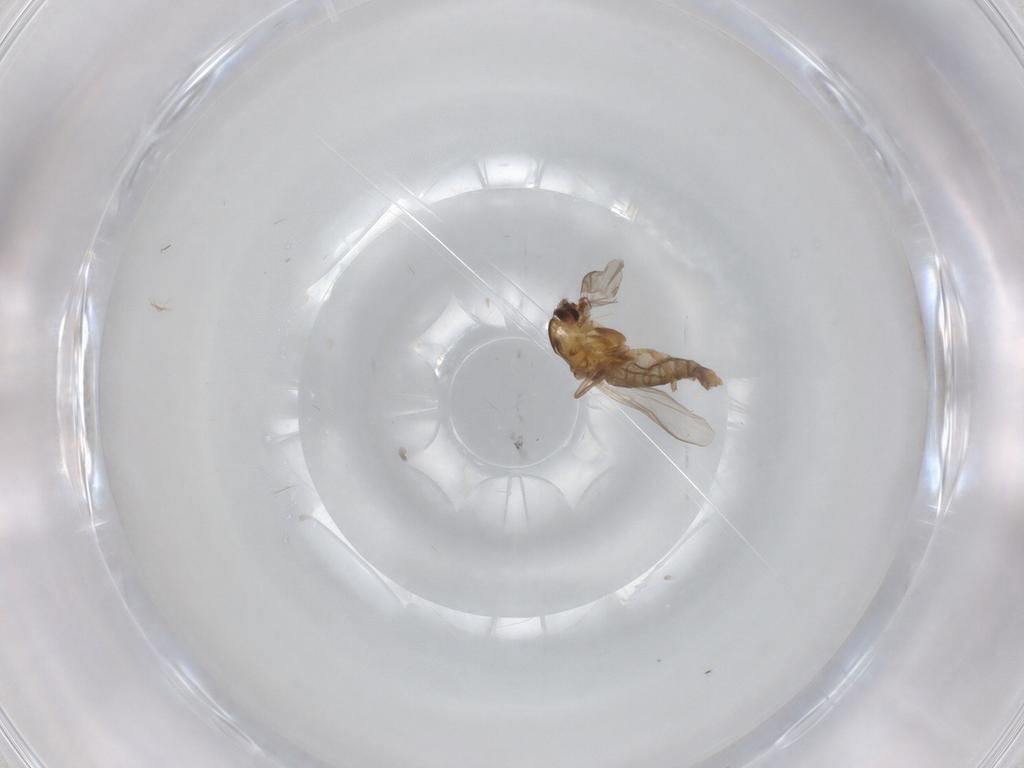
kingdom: Animalia
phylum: Arthropoda
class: Insecta
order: Diptera
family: Chironomidae
